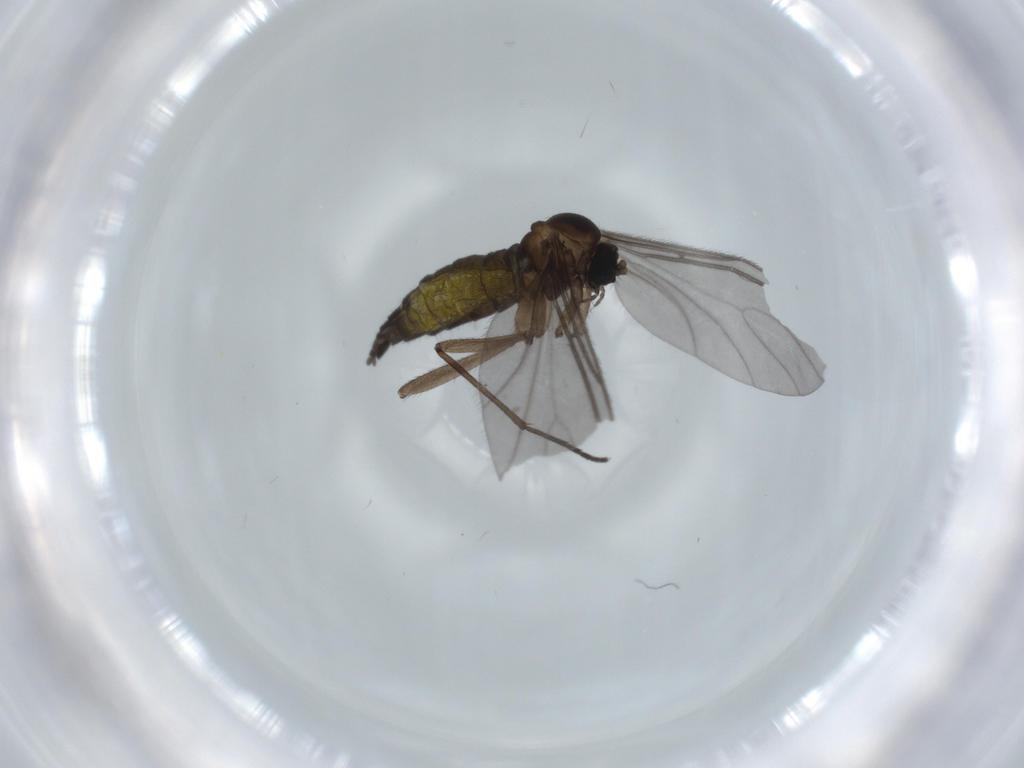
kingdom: Animalia
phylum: Arthropoda
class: Insecta
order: Diptera
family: Sciaridae
